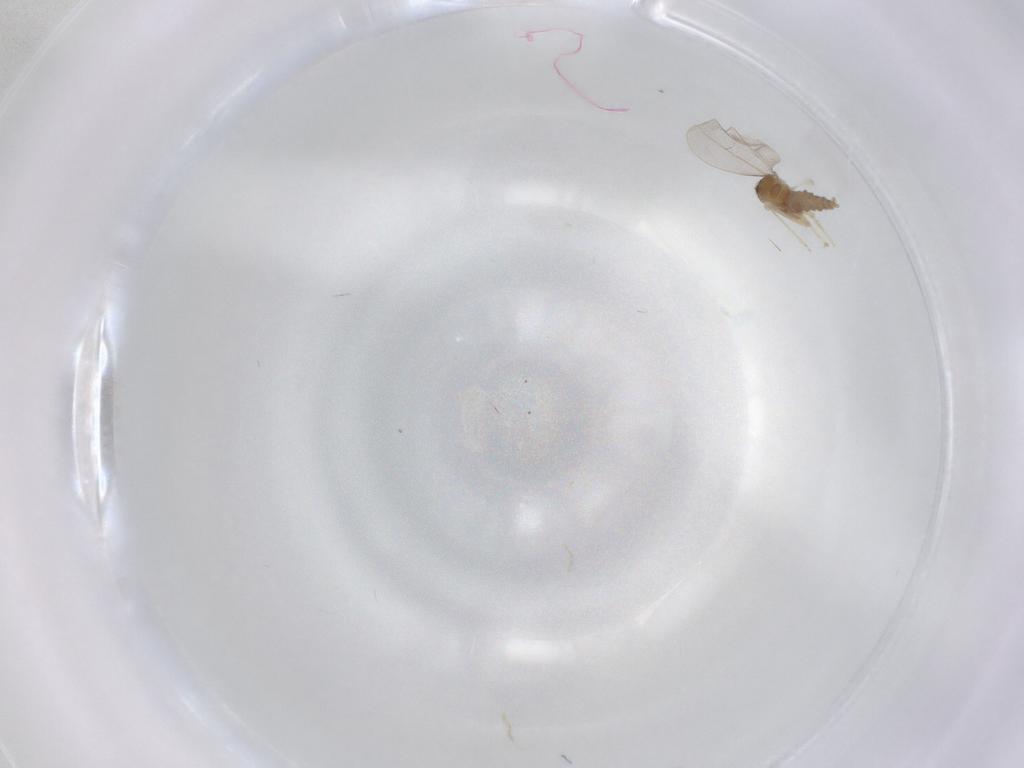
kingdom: Animalia
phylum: Arthropoda
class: Insecta
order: Diptera
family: Cecidomyiidae
